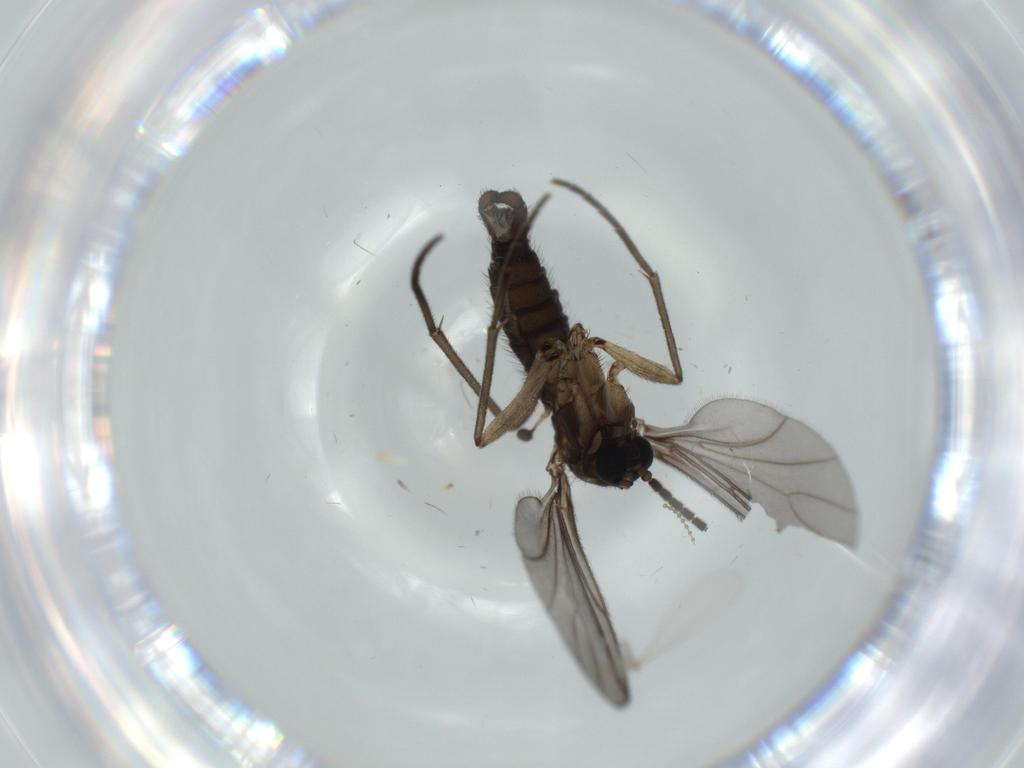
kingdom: Animalia
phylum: Arthropoda
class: Insecta
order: Diptera
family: Sciaridae
